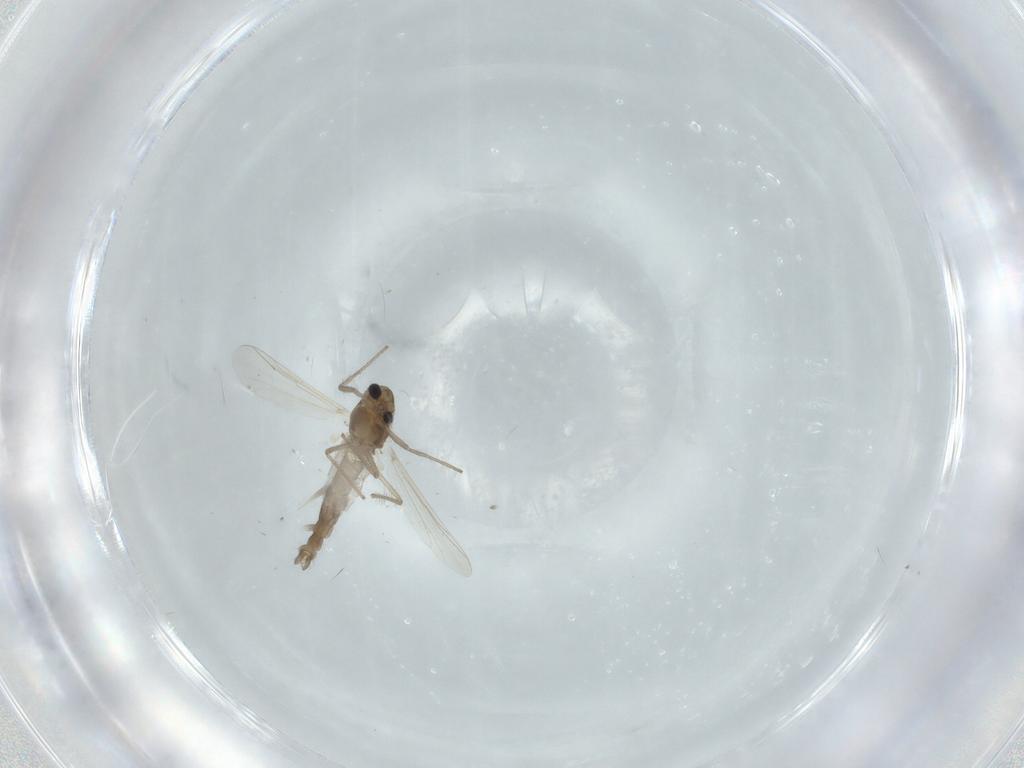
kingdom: Animalia
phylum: Arthropoda
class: Insecta
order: Diptera
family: Chironomidae
